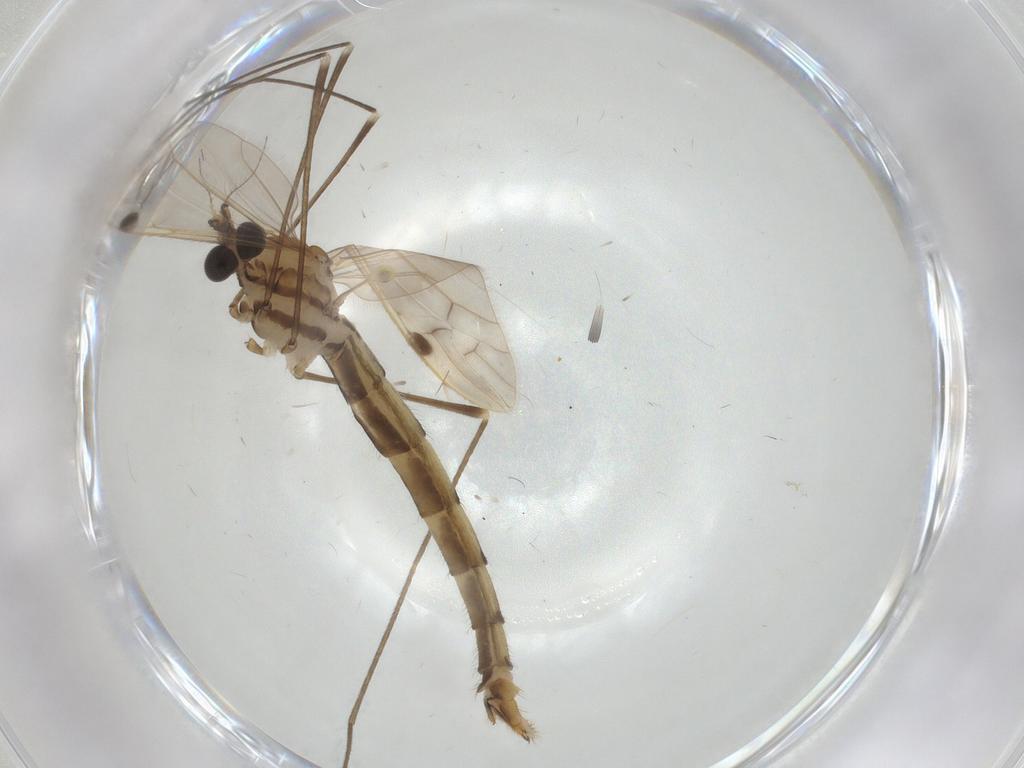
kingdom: Animalia
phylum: Arthropoda
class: Insecta
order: Diptera
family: Limoniidae
